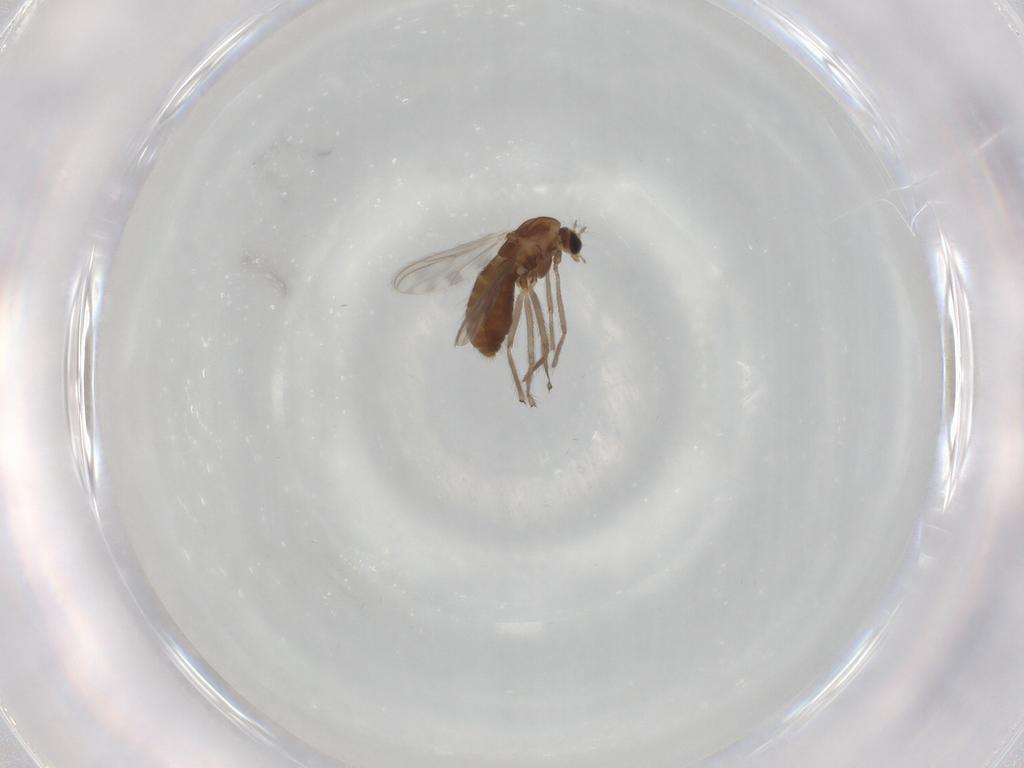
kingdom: Animalia
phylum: Arthropoda
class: Insecta
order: Diptera
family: Chironomidae
